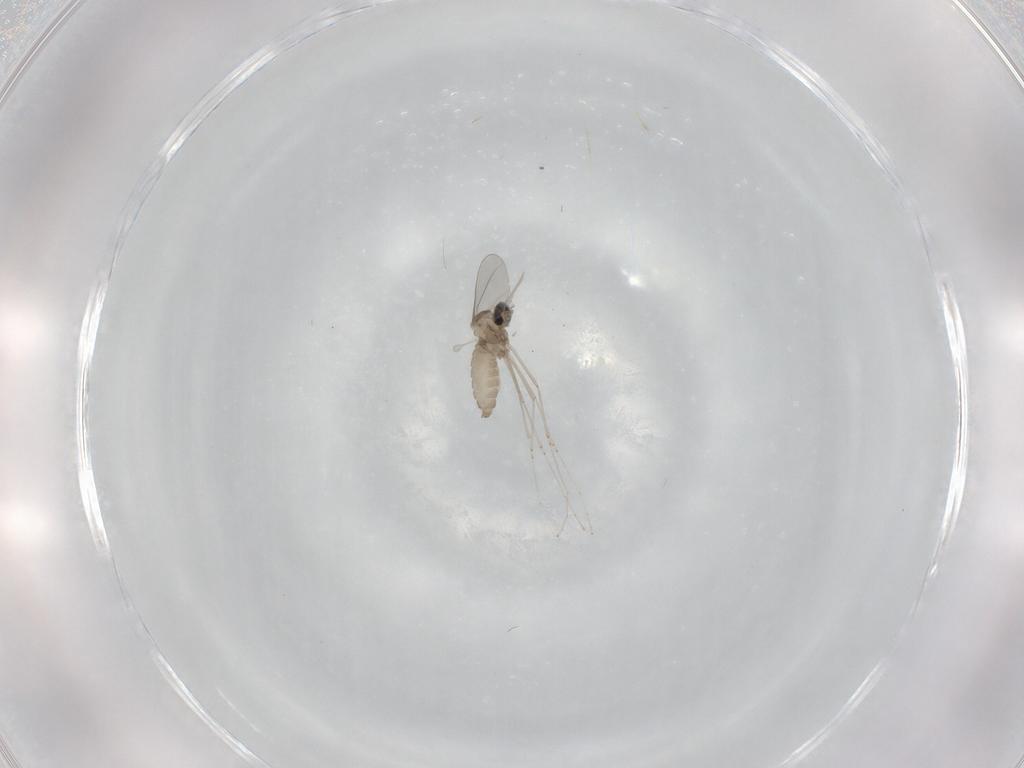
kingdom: Animalia
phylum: Arthropoda
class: Insecta
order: Diptera
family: Cecidomyiidae
